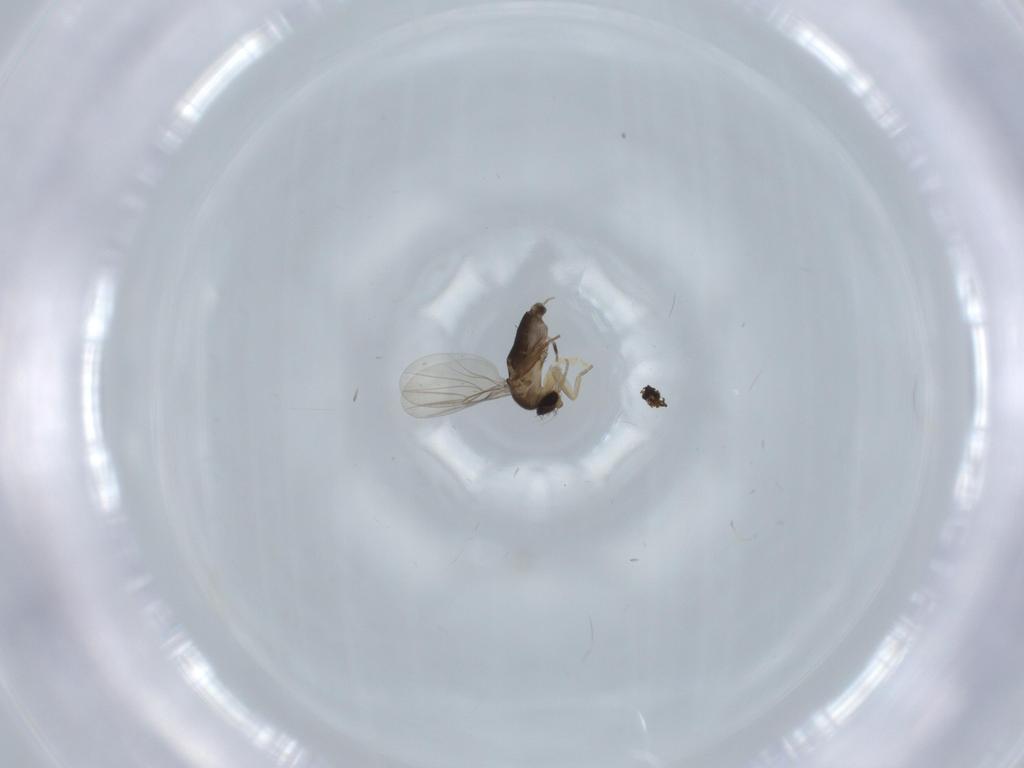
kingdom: Animalia
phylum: Arthropoda
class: Insecta
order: Diptera
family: Phoridae
